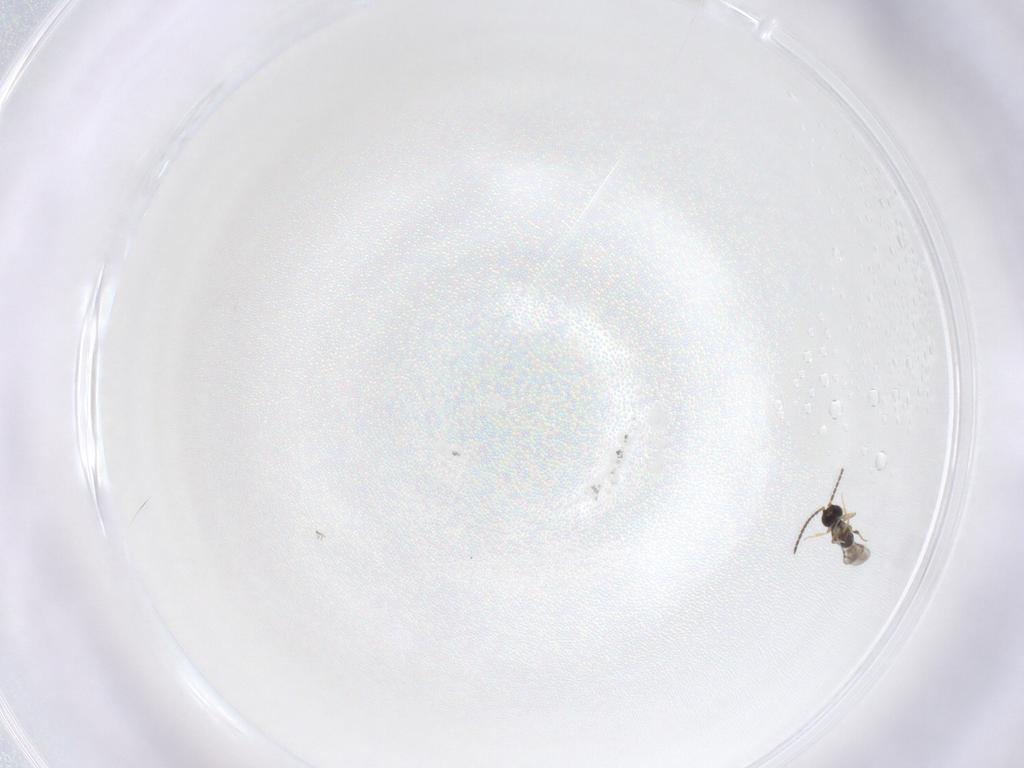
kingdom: Animalia
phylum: Arthropoda
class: Insecta
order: Hymenoptera
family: Ceraphronidae
